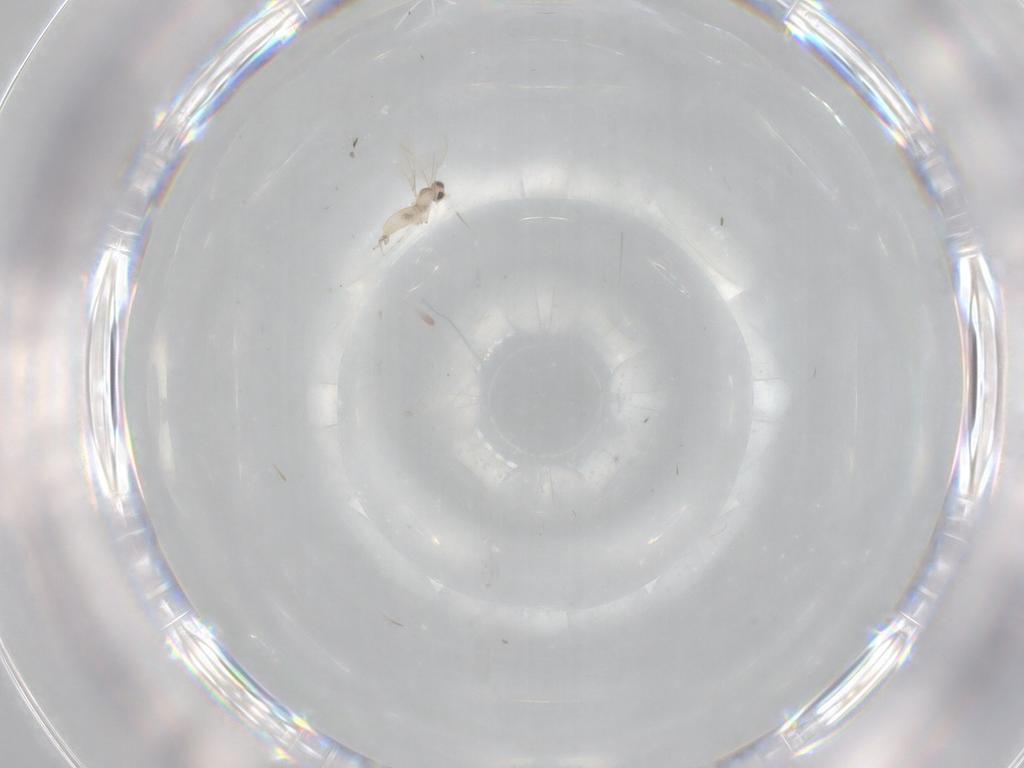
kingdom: Animalia
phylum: Arthropoda
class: Insecta
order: Diptera
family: Cecidomyiidae
